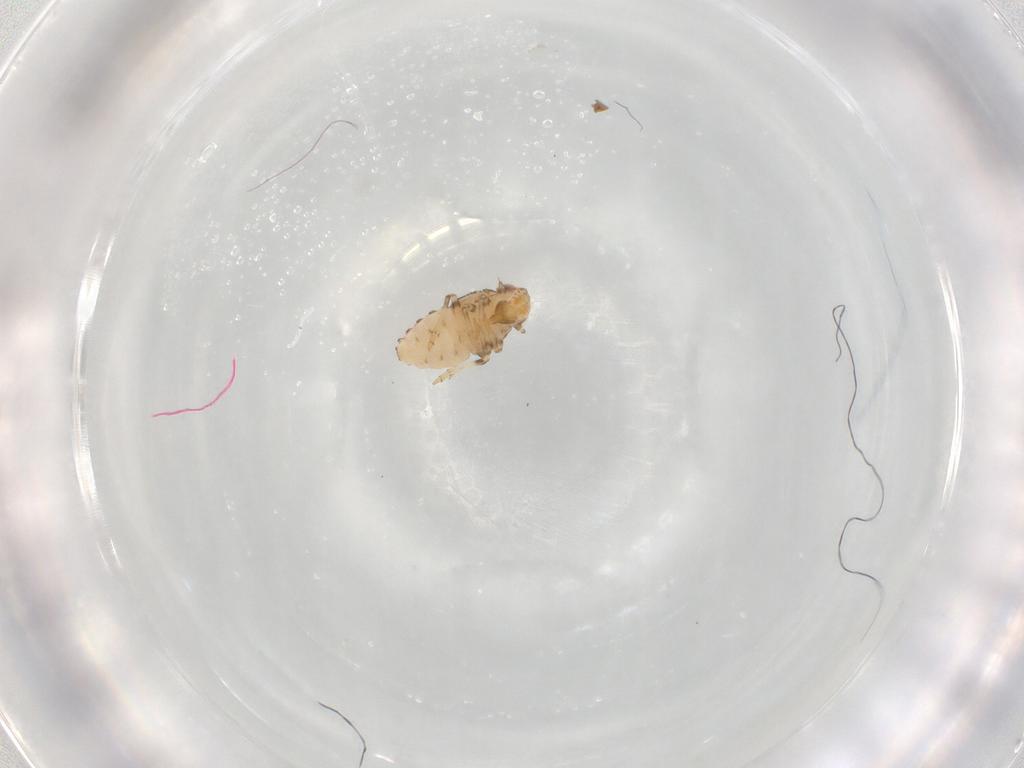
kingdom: Animalia
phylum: Arthropoda
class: Insecta
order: Hemiptera
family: Issidae
